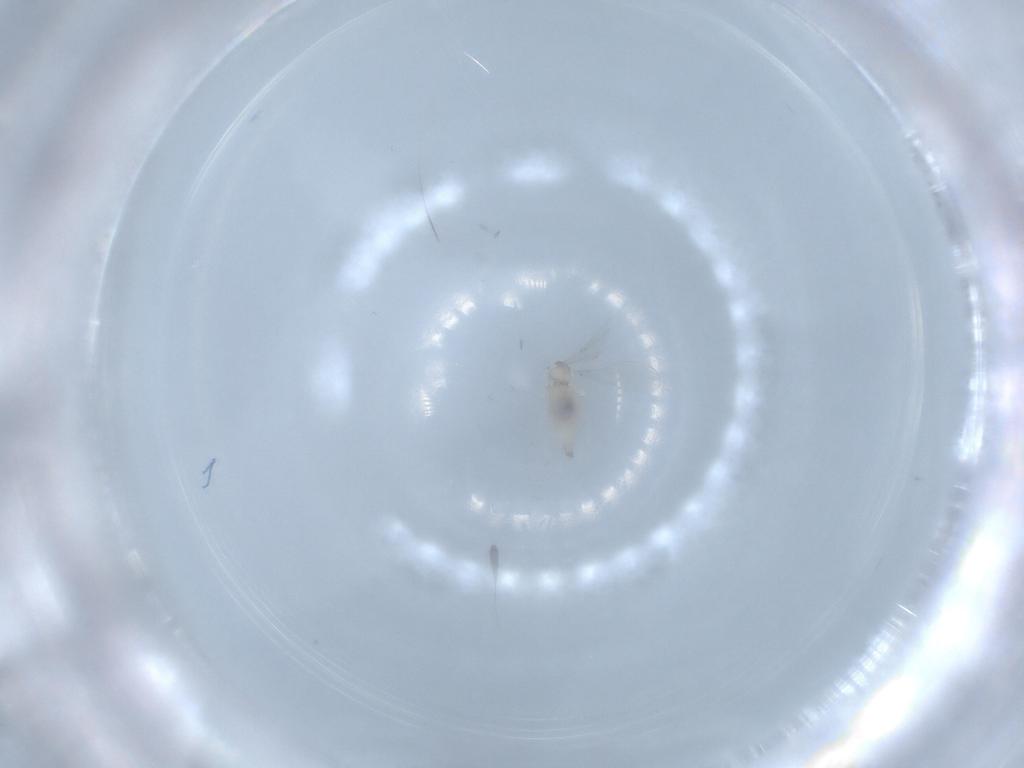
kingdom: Animalia
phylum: Arthropoda
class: Insecta
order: Diptera
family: Cecidomyiidae
